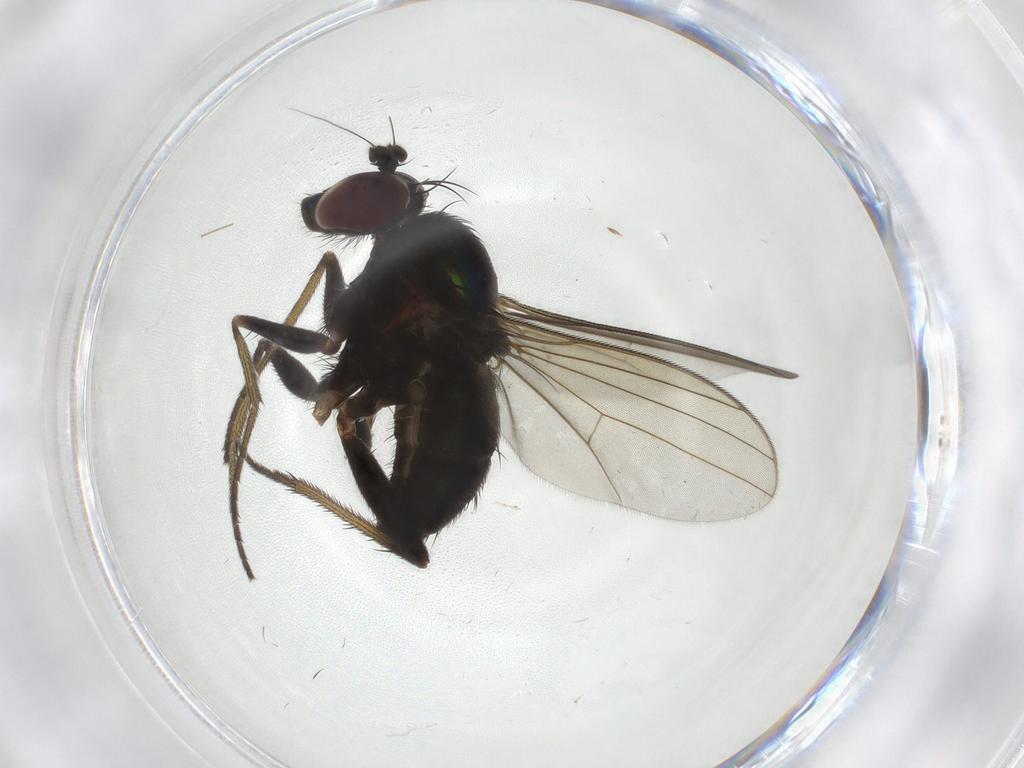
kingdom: Animalia
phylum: Arthropoda
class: Insecta
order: Diptera
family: Dolichopodidae
